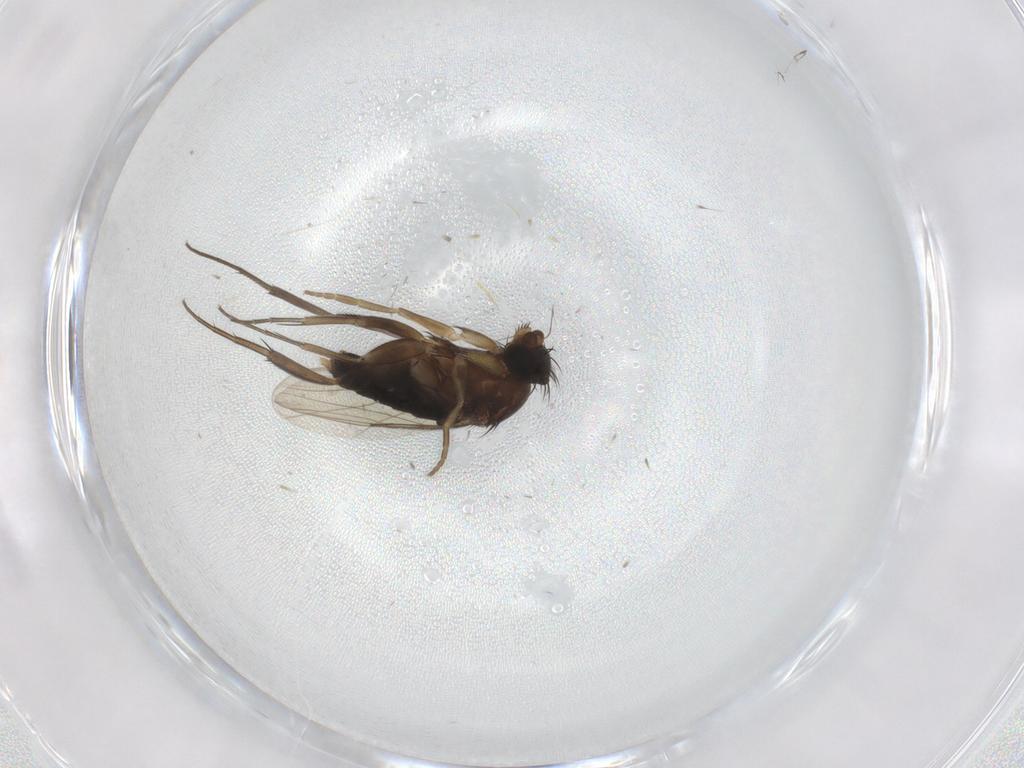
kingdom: Animalia
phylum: Arthropoda
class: Insecta
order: Diptera
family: Phoridae
